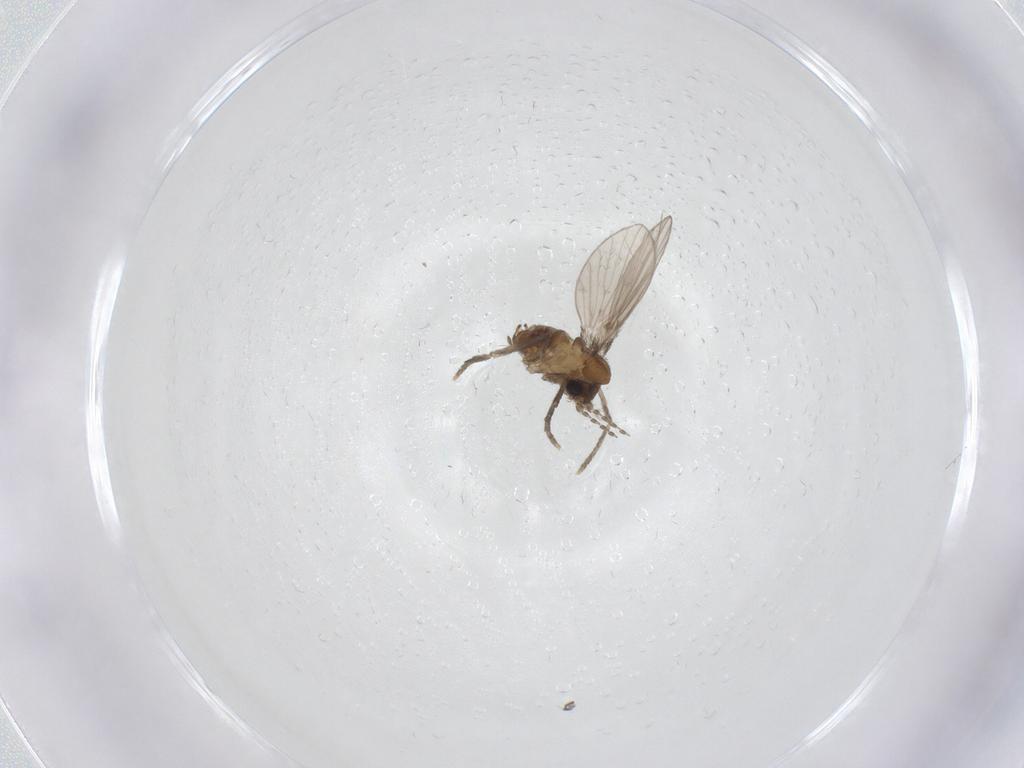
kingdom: Animalia
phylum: Arthropoda
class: Insecta
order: Diptera
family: Psychodidae
